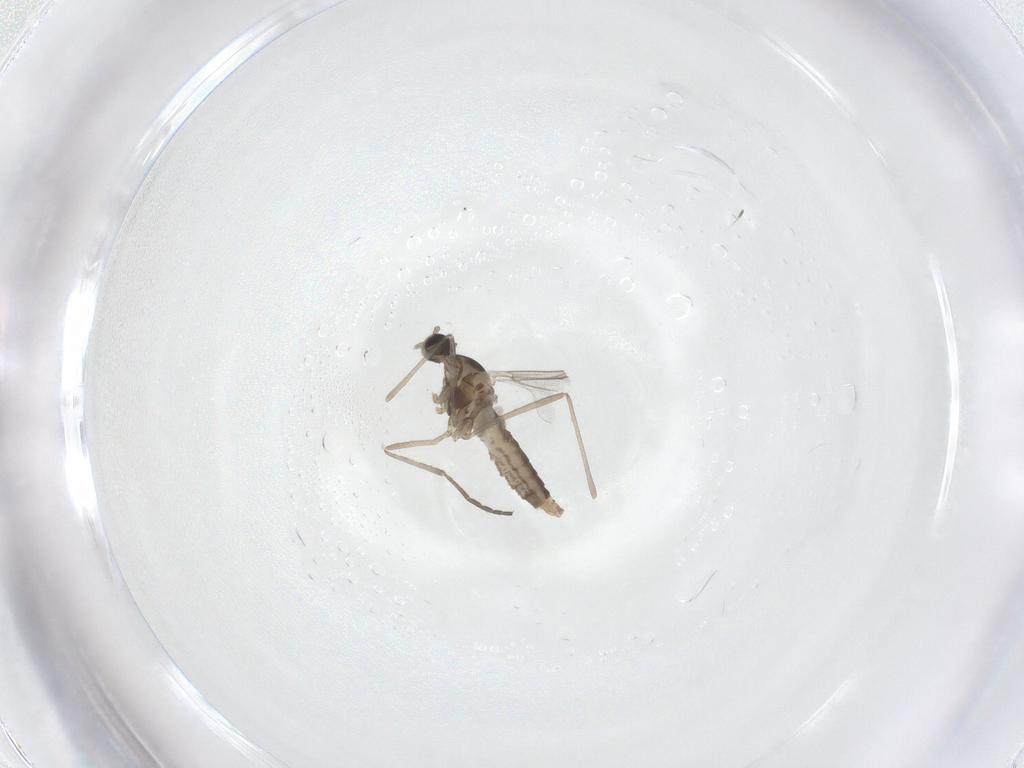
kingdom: Animalia
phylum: Arthropoda
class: Insecta
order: Diptera
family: Cecidomyiidae
